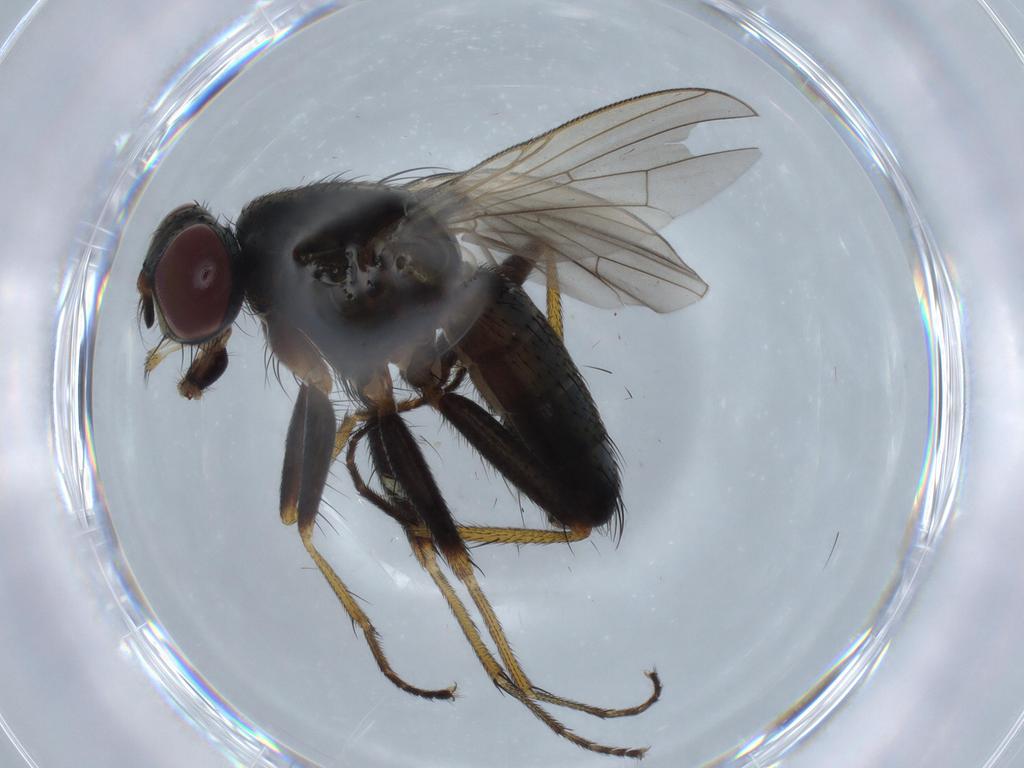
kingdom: Animalia
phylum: Arthropoda
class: Insecta
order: Diptera
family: Muscidae
